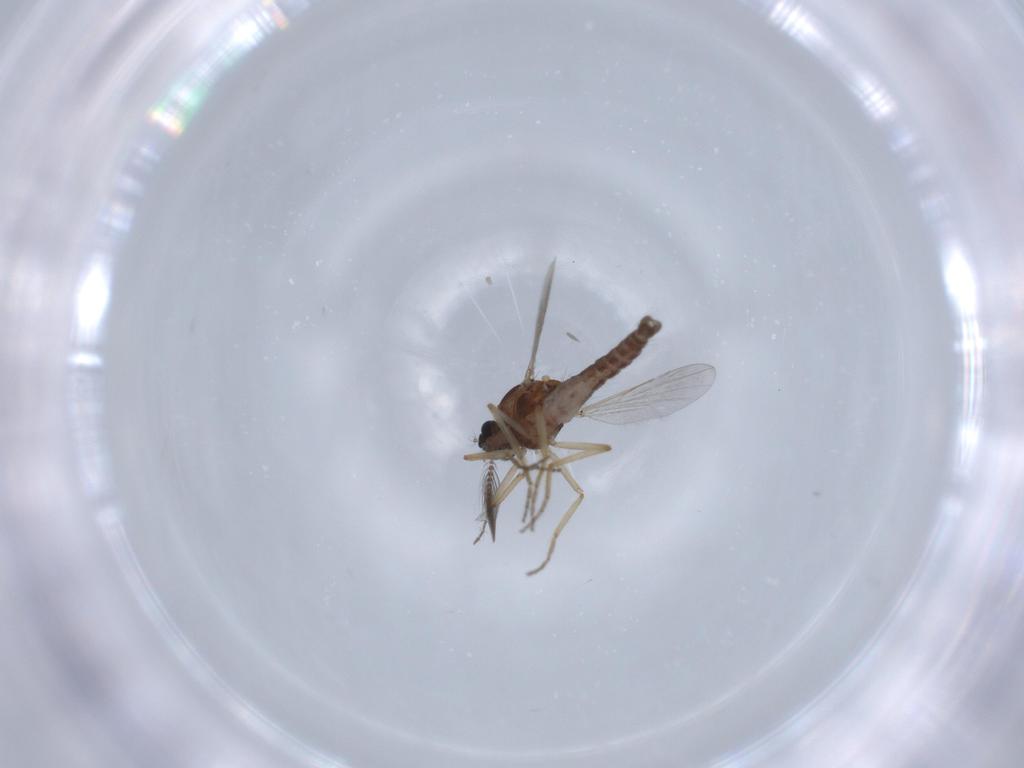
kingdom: Animalia
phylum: Arthropoda
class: Insecta
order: Diptera
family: Ceratopogonidae
